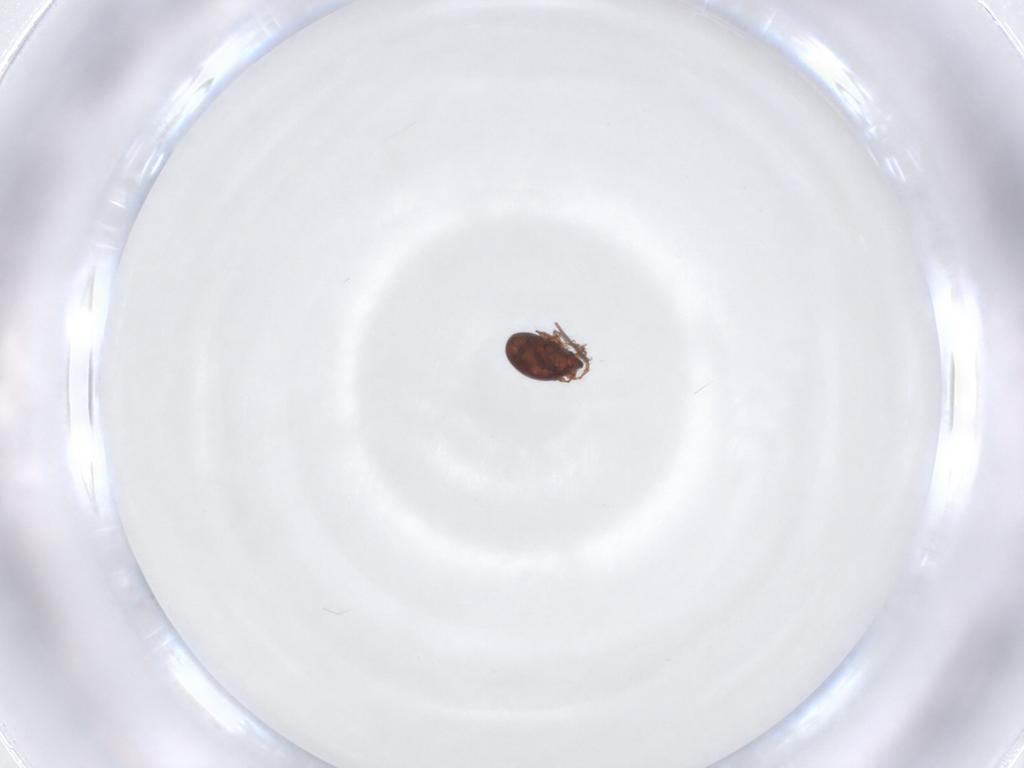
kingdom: Animalia
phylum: Arthropoda
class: Arachnida
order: Sarcoptiformes
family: Ceratozetidae
